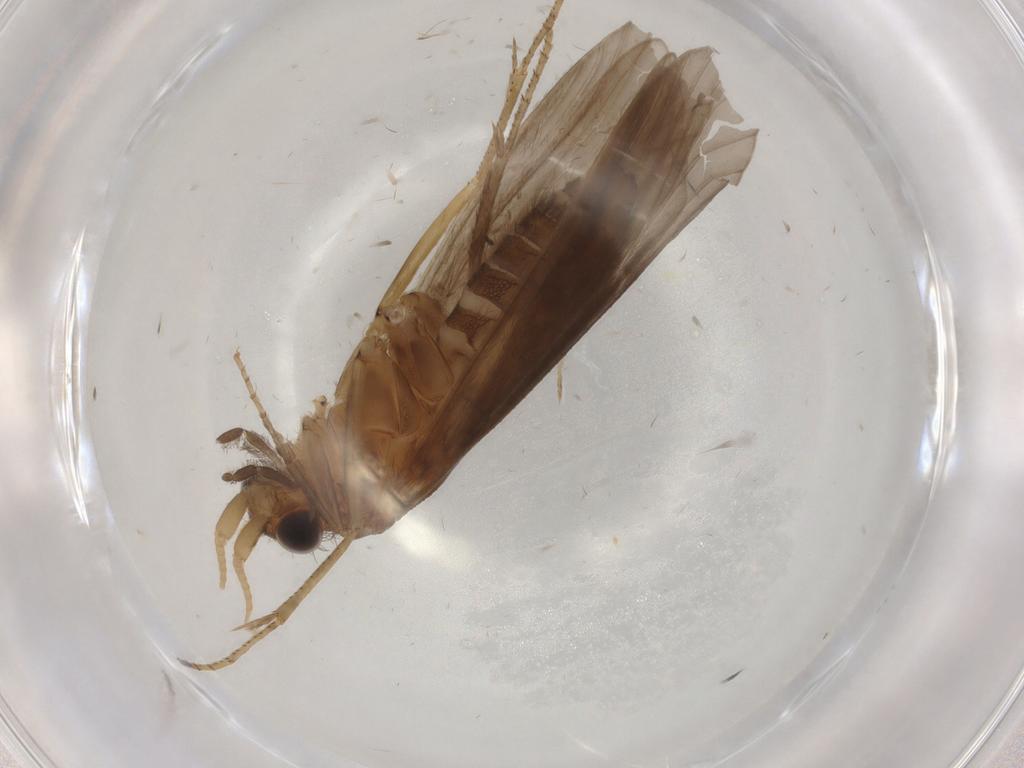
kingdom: Animalia
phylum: Arthropoda
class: Insecta
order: Trichoptera
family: Helicopsychidae
